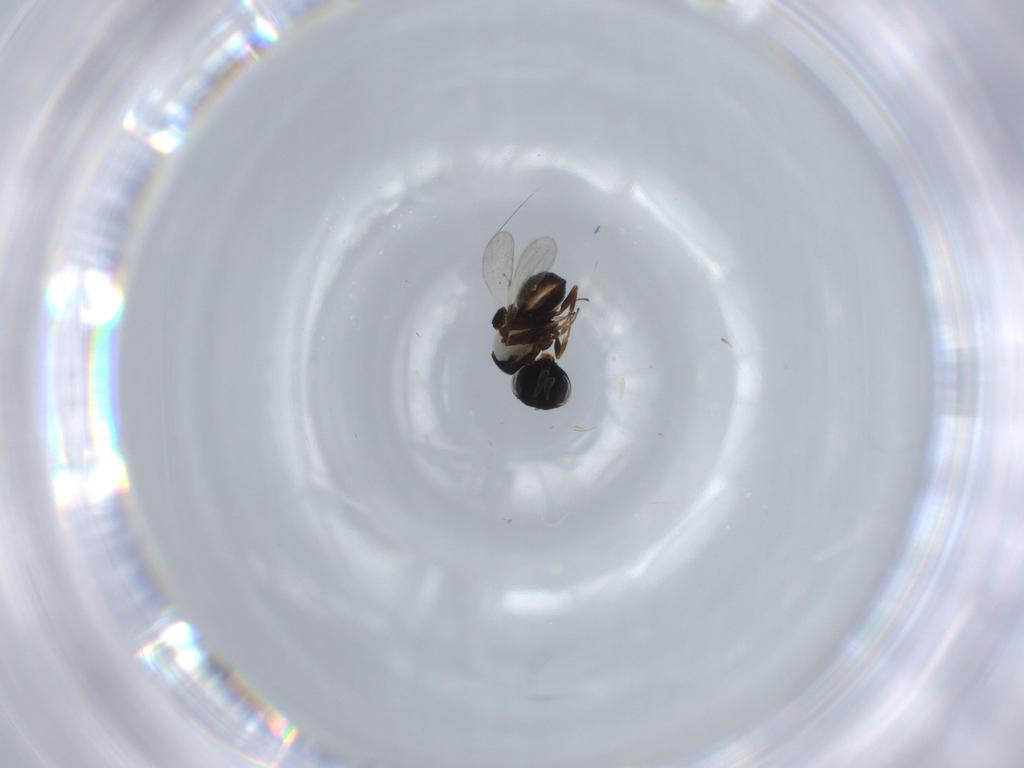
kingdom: Animalia
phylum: Arthropoda
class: Insecta
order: Hymenoptera
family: Scelionidae
